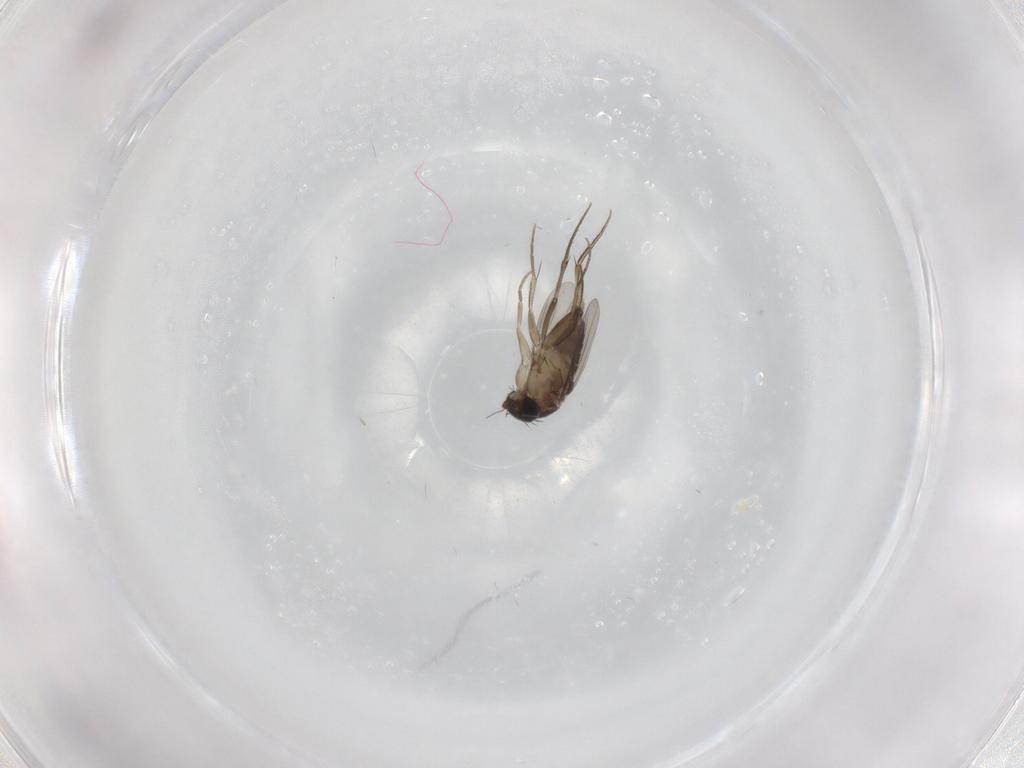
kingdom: Animalia
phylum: Arthropoda
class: Insecta
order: Diptera
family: Phoridae
